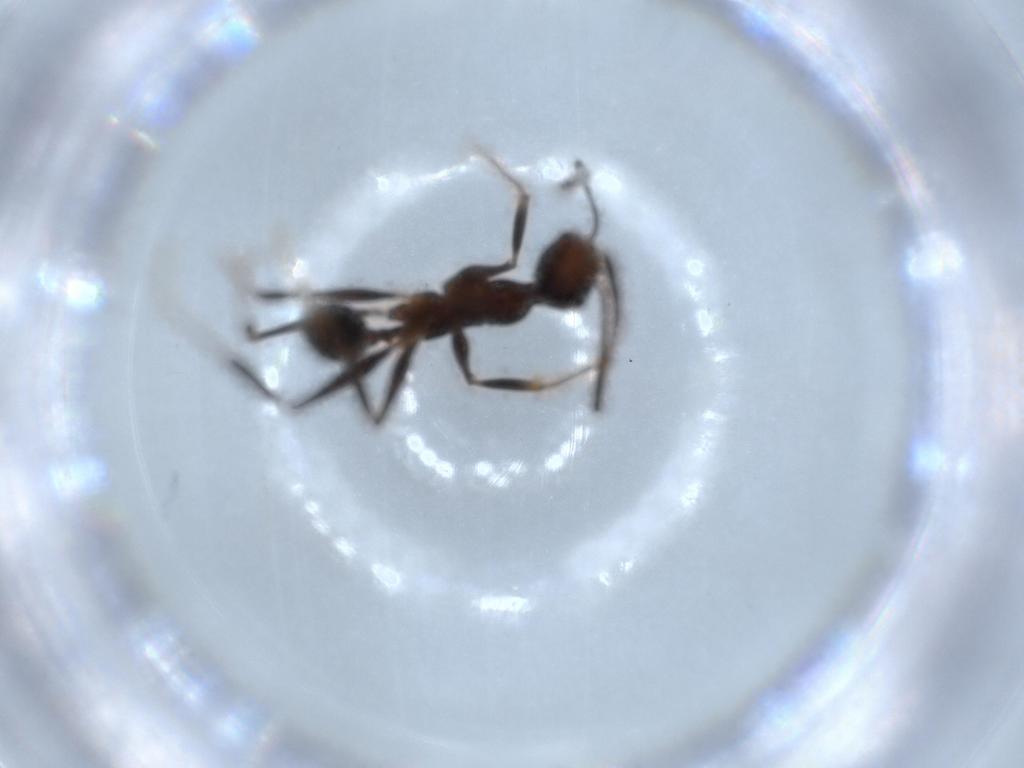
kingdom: Animalia
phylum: Arthropoda
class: Insecta
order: Hymenoptera
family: Formicidae
